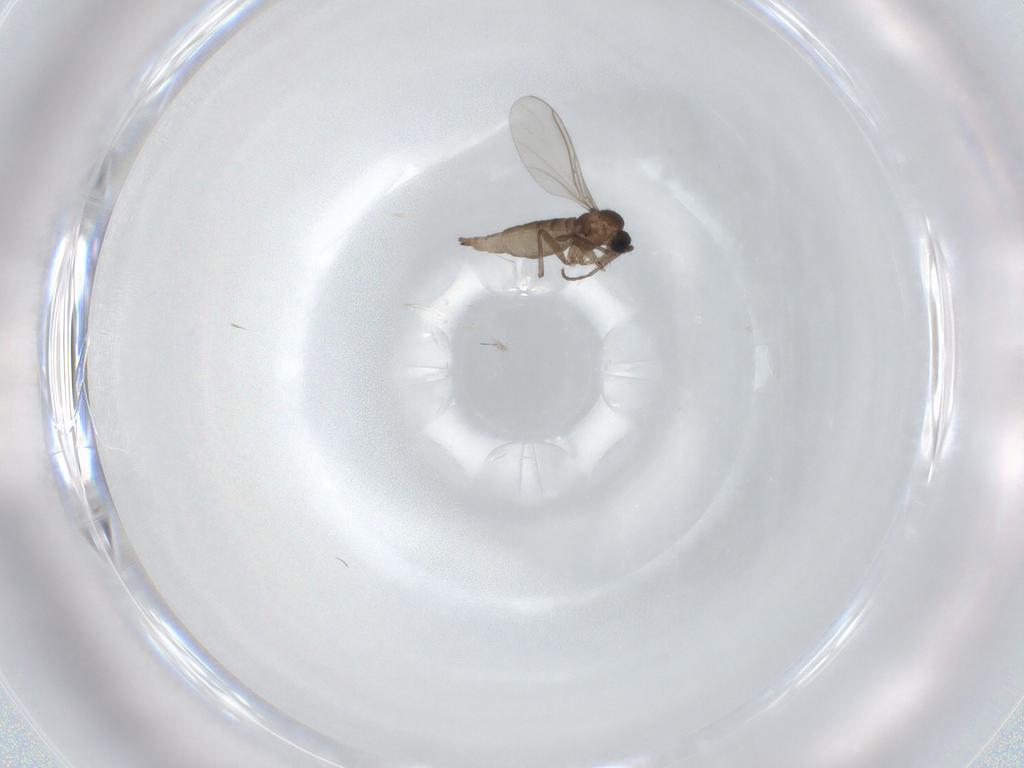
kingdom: Animalia
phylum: Arthropoda
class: Insecta
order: Diptera
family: Sciaridae
